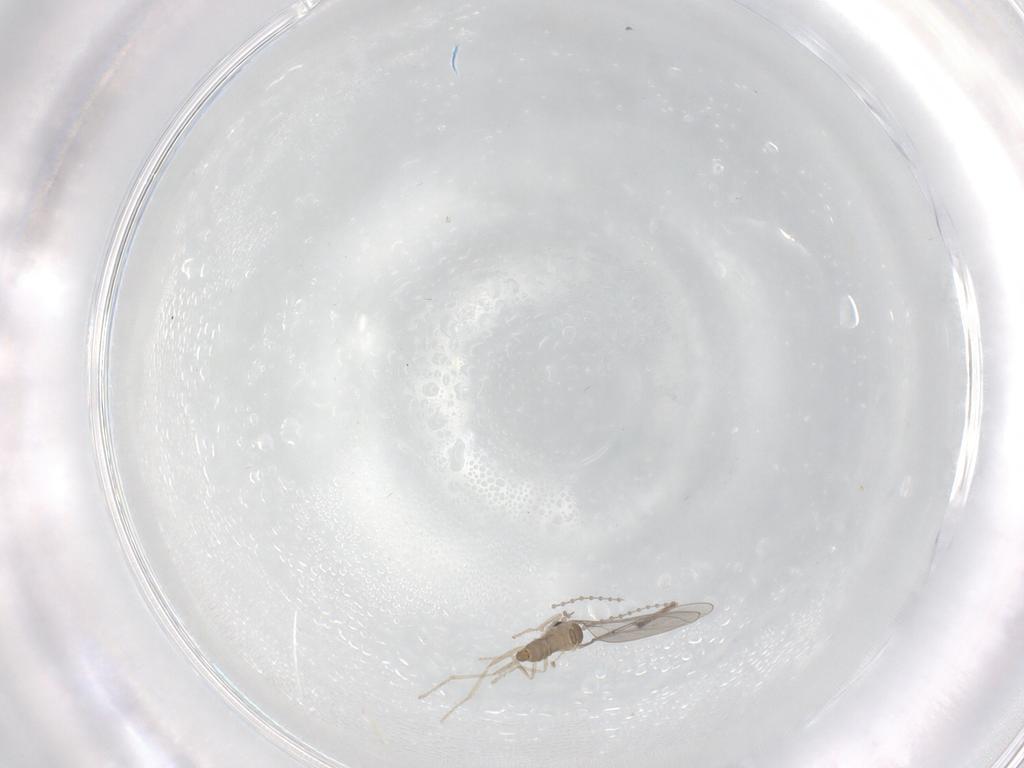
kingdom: Animalia
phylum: Arthropoda
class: Insecta
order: Diptera
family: Cecidomyiidae
